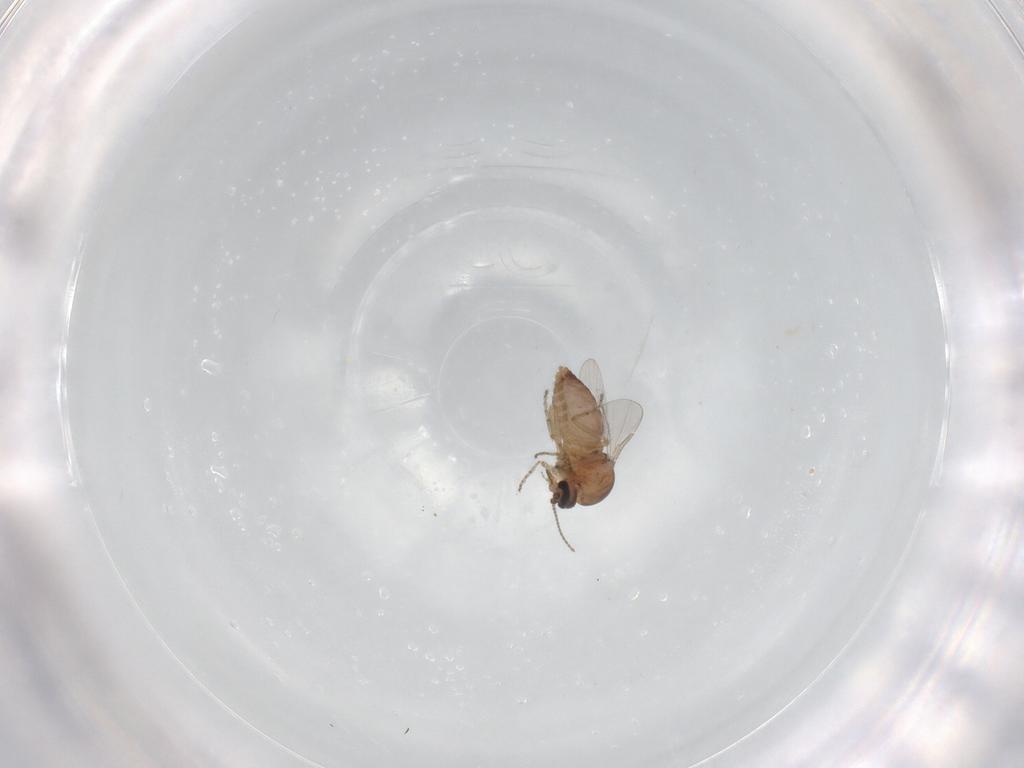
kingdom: Animalia
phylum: Arthropoda
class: Insecta
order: Diptera
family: Ceratopogonidae
